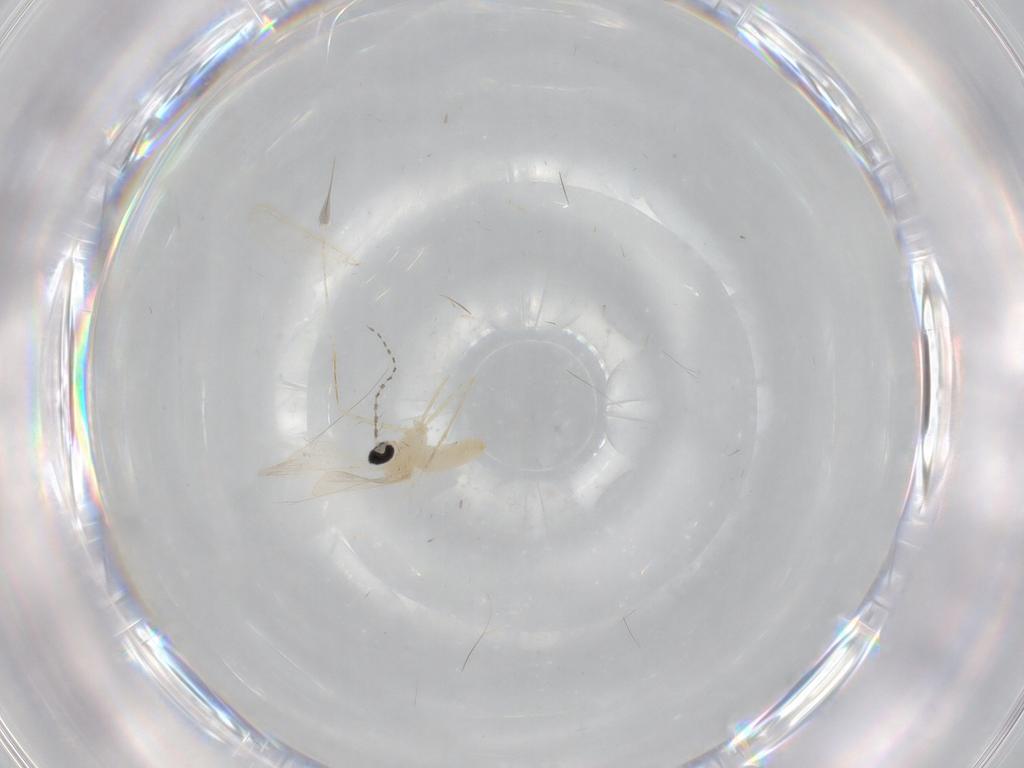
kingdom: Animalia
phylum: Arthropoda
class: Insecta
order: Diptera
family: Cecidomyiidae
